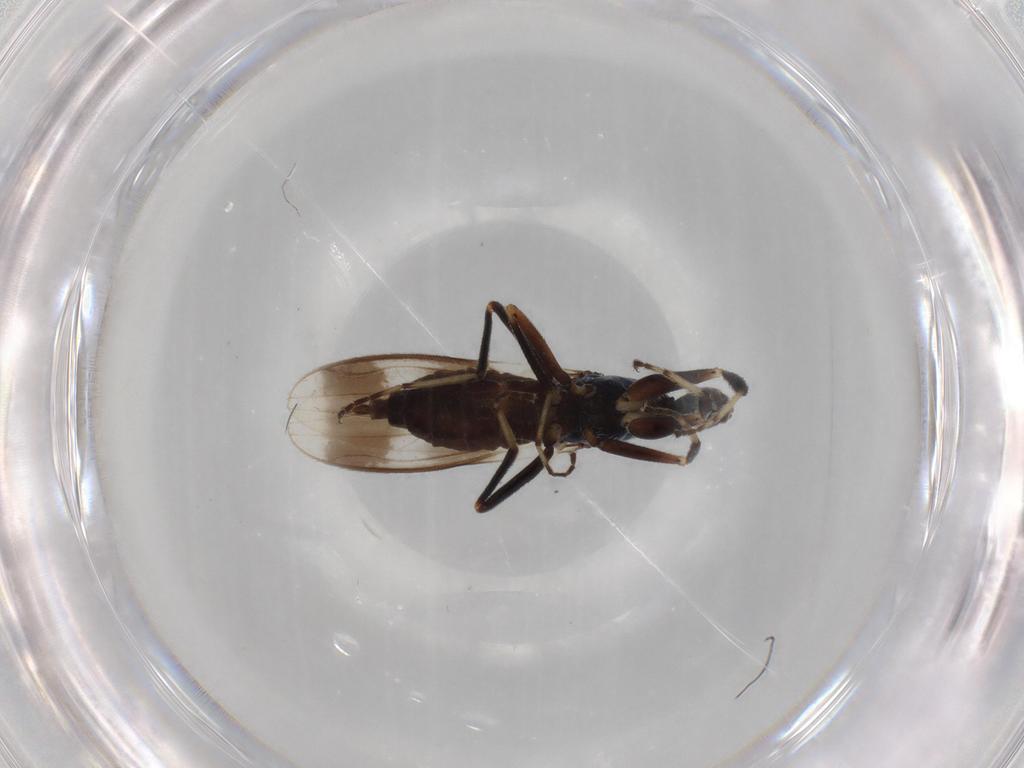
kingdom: Animalia
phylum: Arthropoda
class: Insecta
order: Diptera
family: Hybotidae
